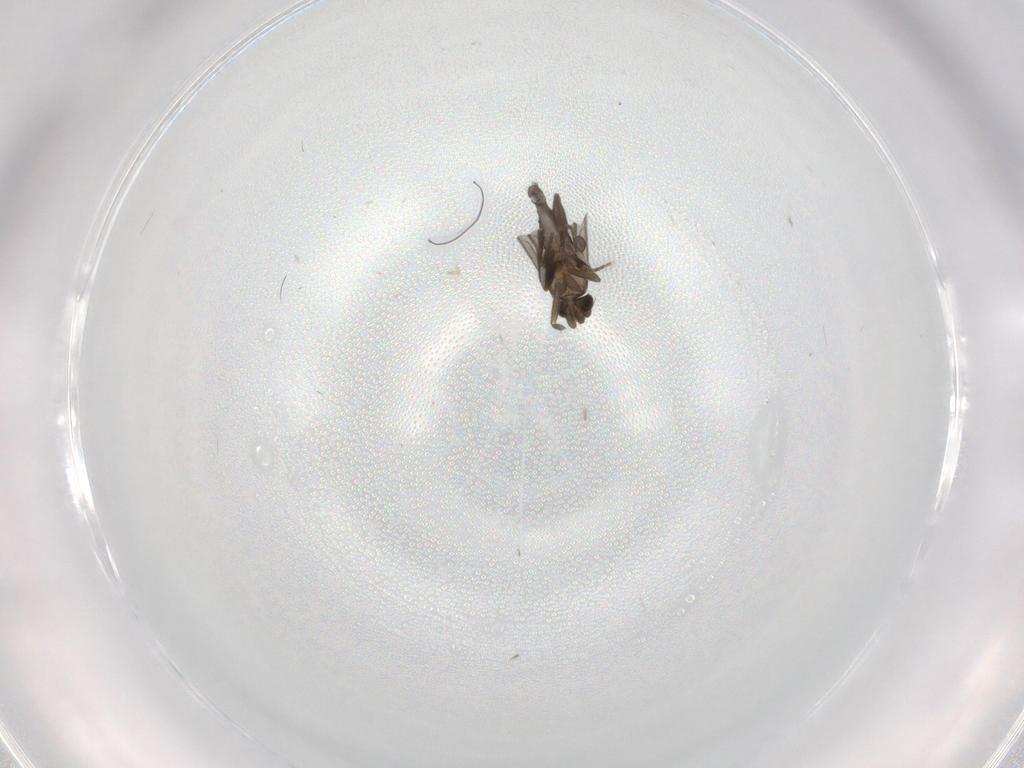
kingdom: Animalia
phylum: Arthropoda
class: Insecta
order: Diptera
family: Phoridae
